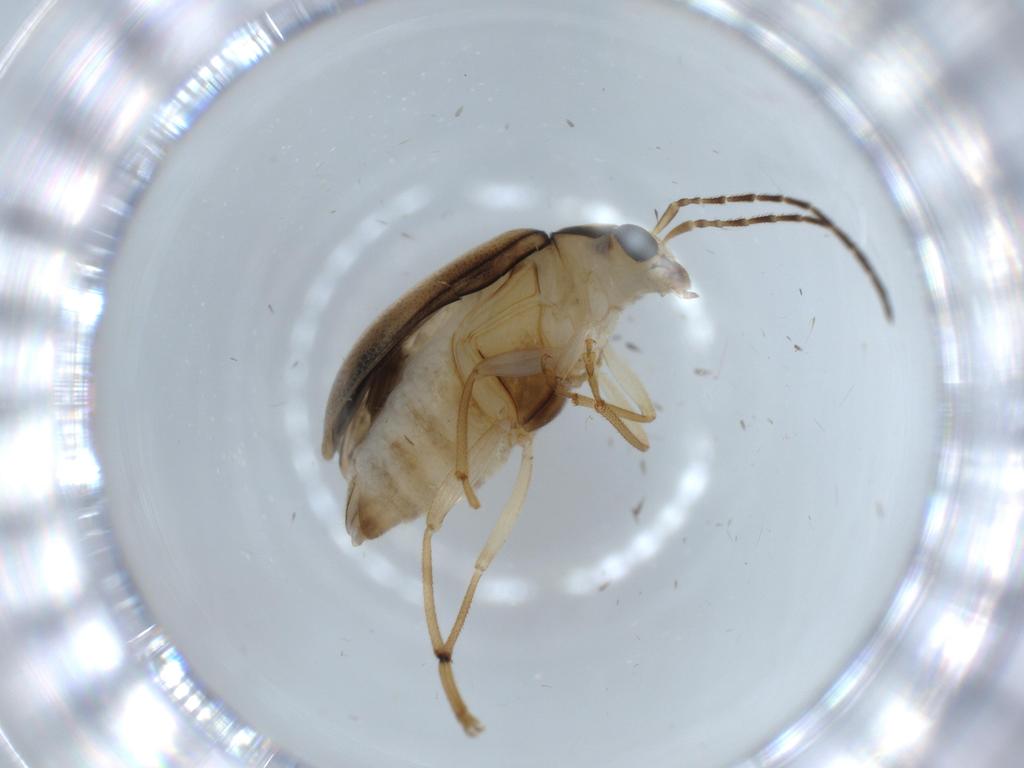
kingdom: Animalia
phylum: Arthropoda
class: Insecta
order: Coleoptera
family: Chrysomelidae
